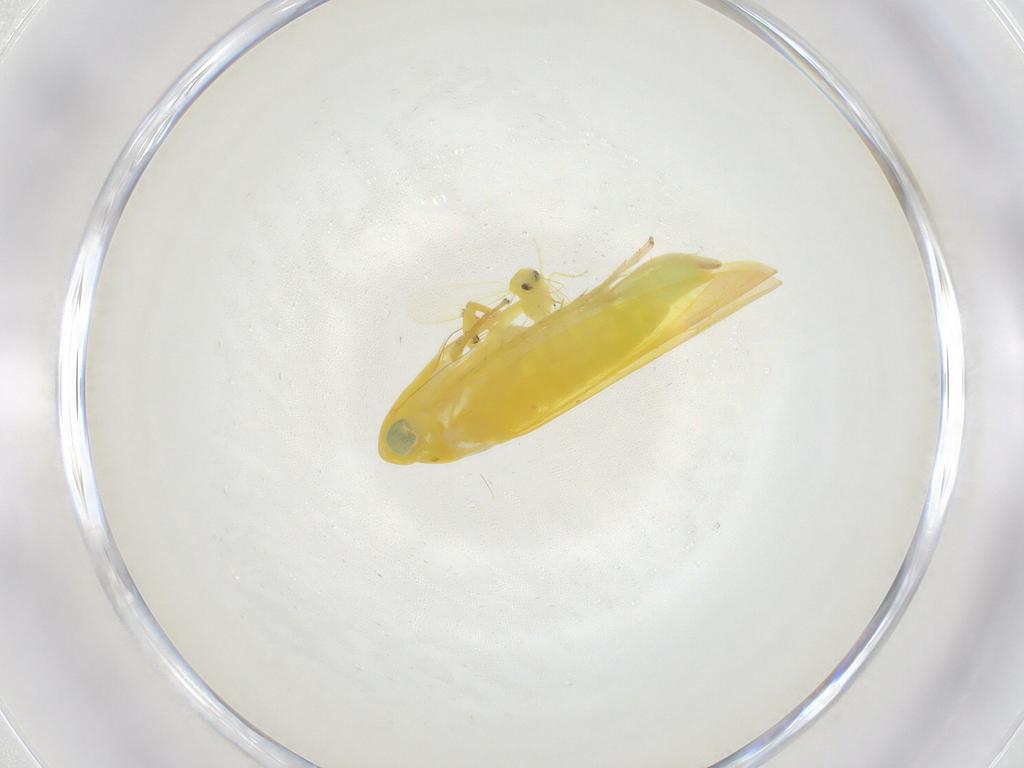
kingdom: Animalia
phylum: Arthropoda
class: Insecta
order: Hemiptera
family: Aleyrodidae
